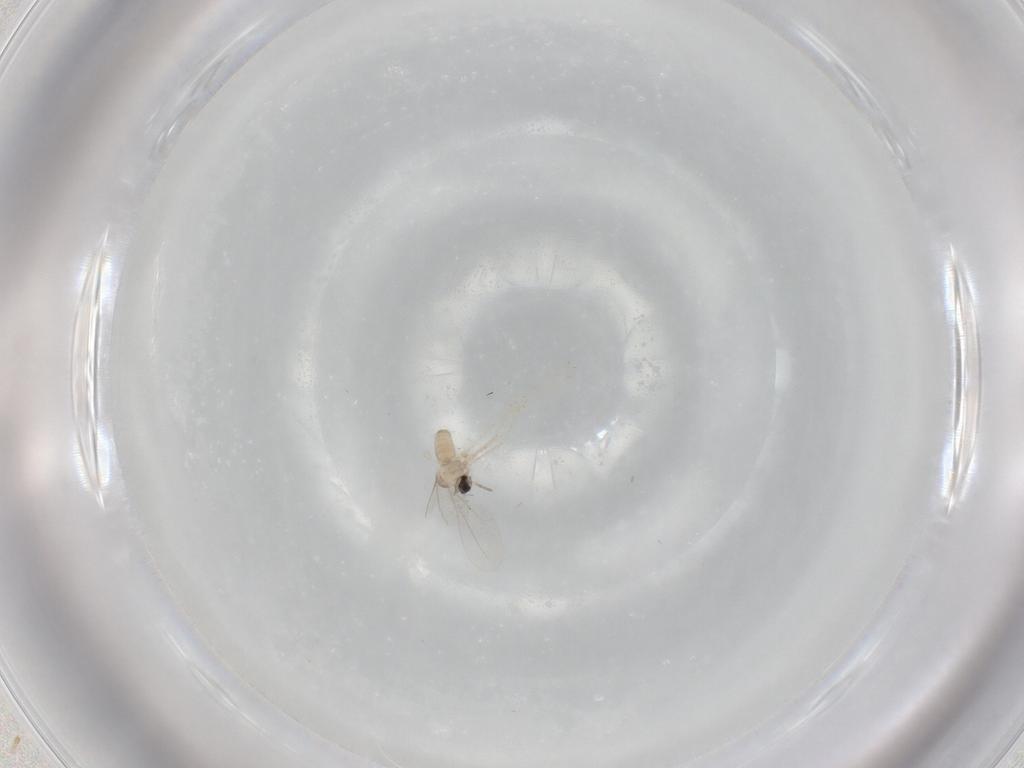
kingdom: Animalia
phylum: Arthropoda
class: Insecta
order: Diptera
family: Cecidomyiidae
